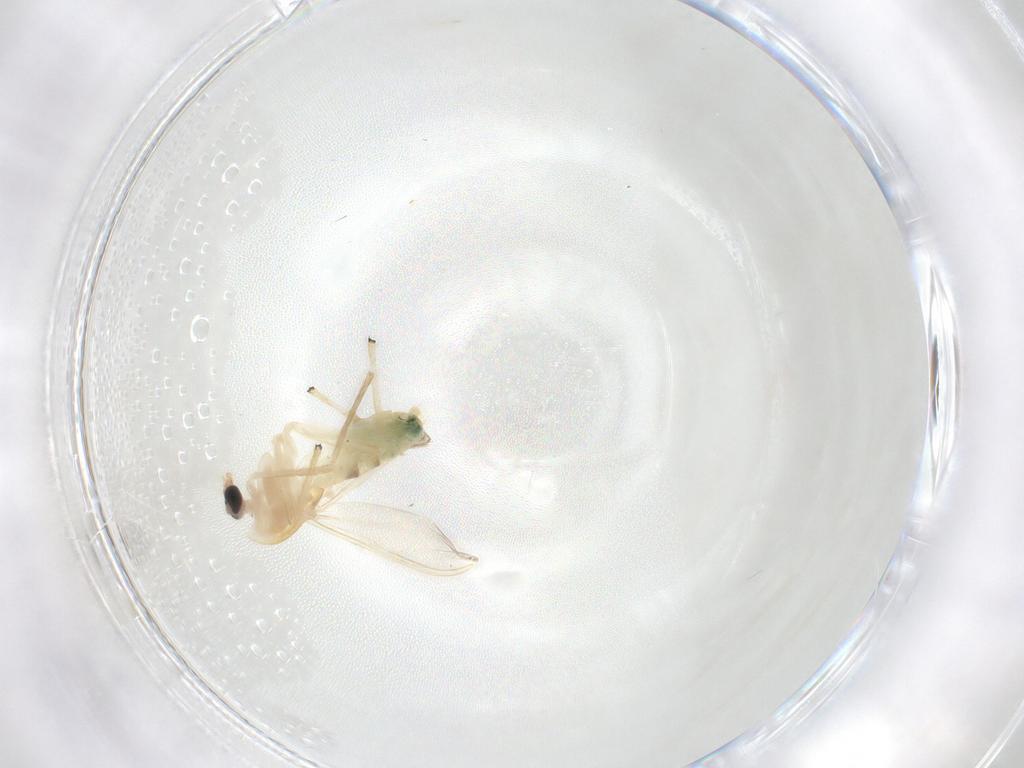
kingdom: Animalia
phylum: Arthropoda
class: Insecta
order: Diptera
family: Chironomidae
